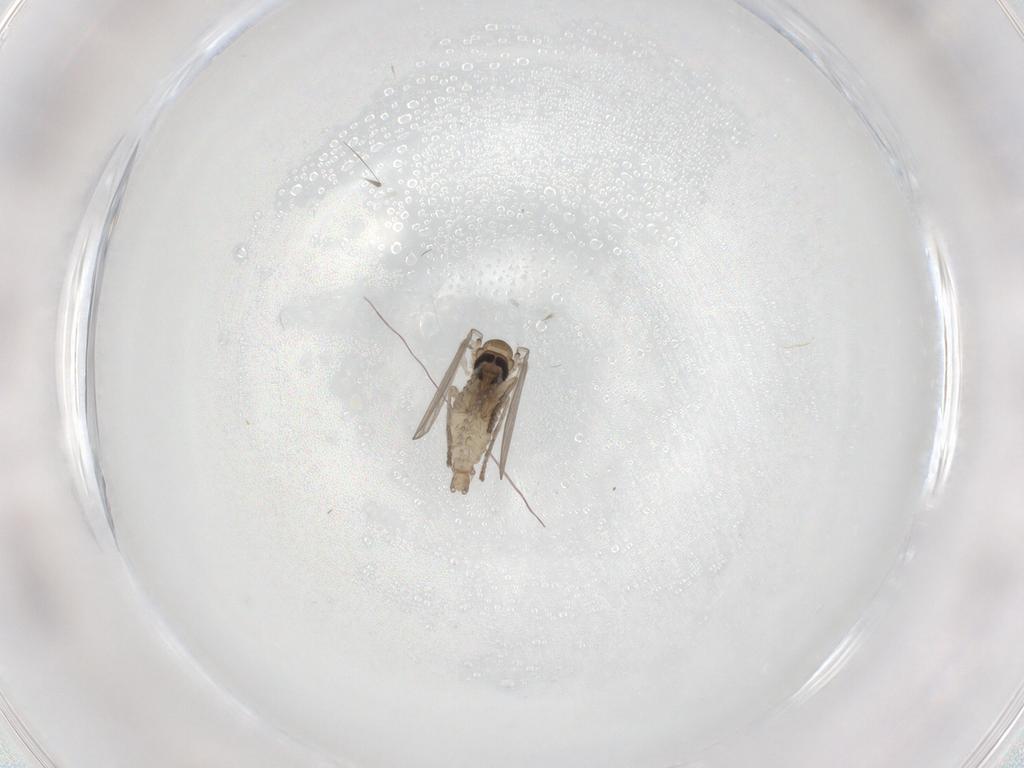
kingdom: Animalia
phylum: Arthropoda
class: Insecta
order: Diptera
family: Psychodidae
